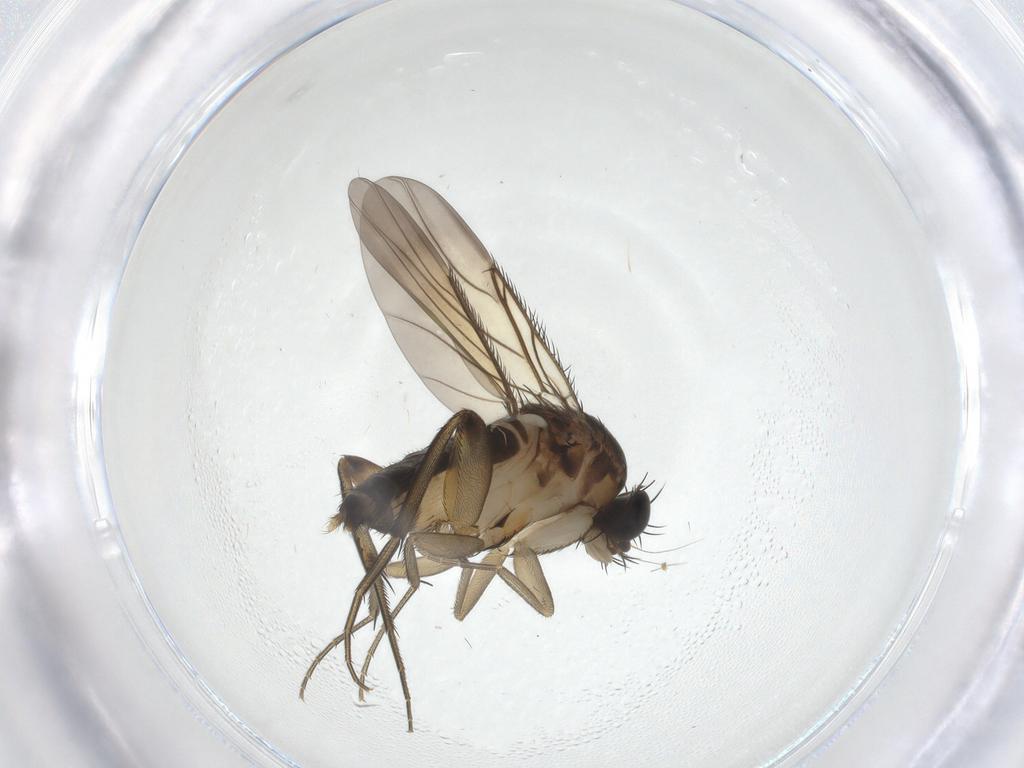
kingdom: Animalia
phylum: Arthropoda
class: Insecta
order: Diptera
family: Phoridae
